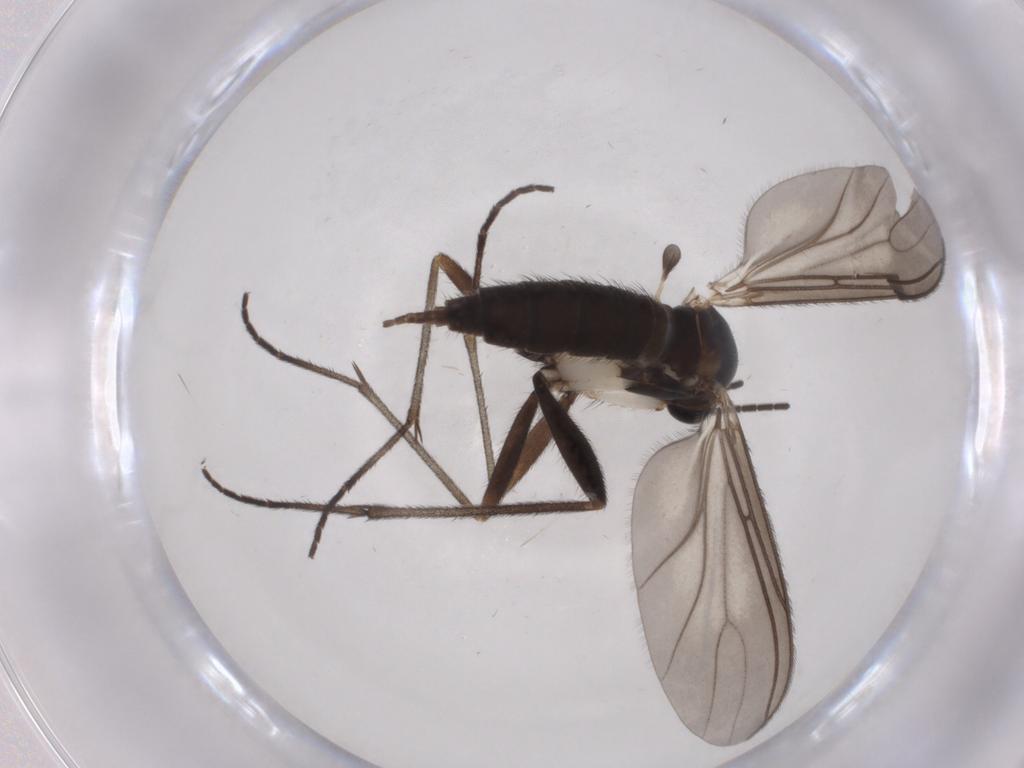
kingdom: Animalia
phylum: Arthropoda
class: Insecta
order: Diptera
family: Sciaridae
